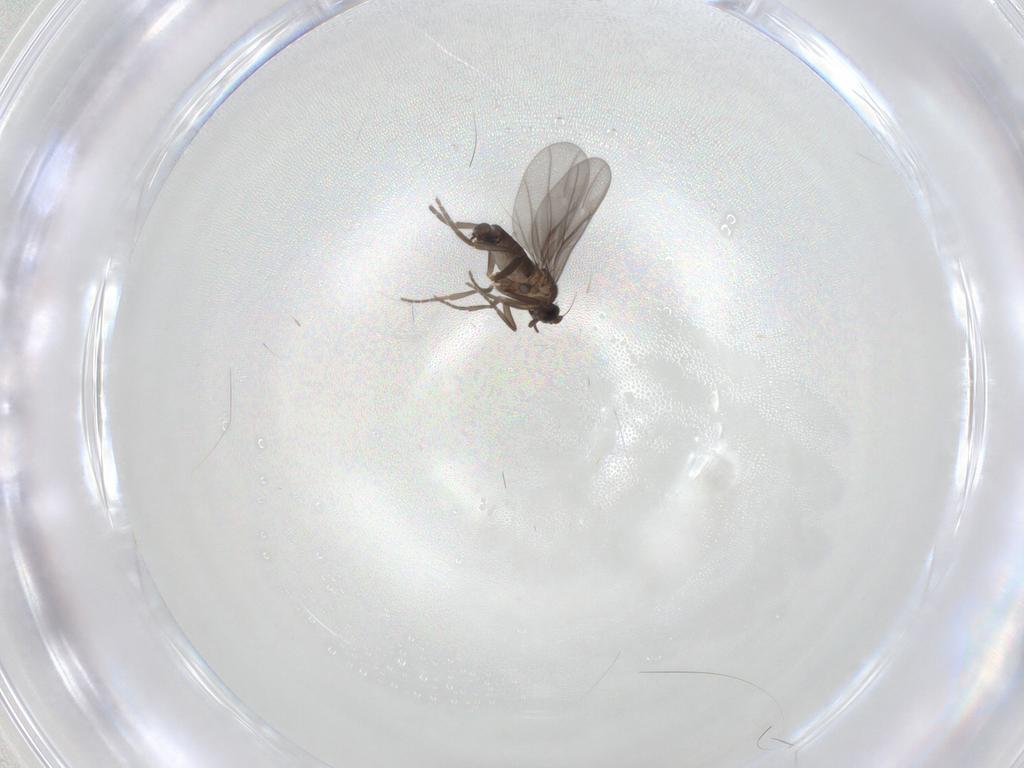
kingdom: Animalia
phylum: Arthropoda
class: Insecta
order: Diptera
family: Phoridae
